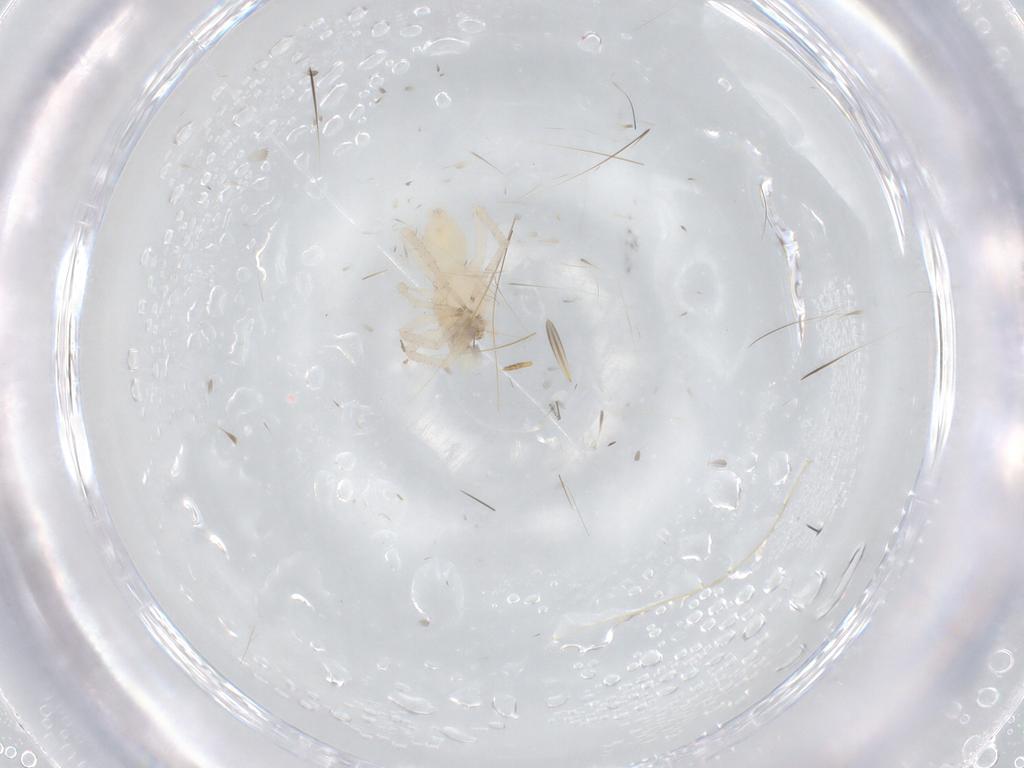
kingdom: Animalia
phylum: Arthropoda
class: Arachnida
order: Araneae
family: Anyphaenidae
